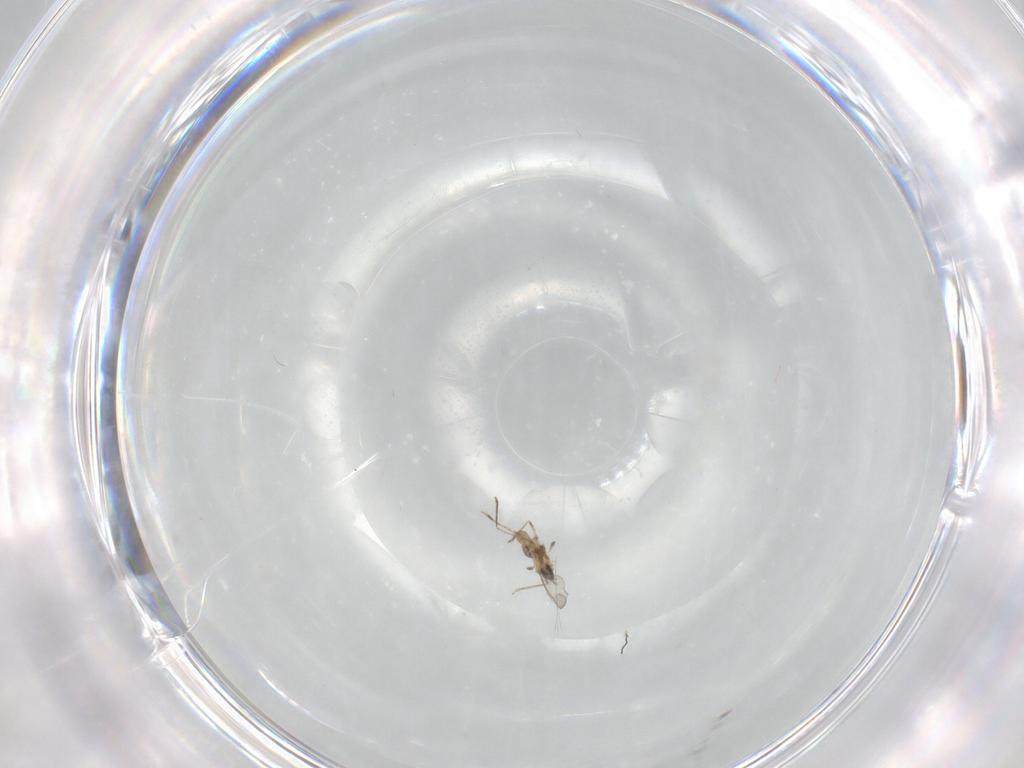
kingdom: Animalia
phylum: Arthropoda
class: Insecta
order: Diptera
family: Cecidomyiidae
